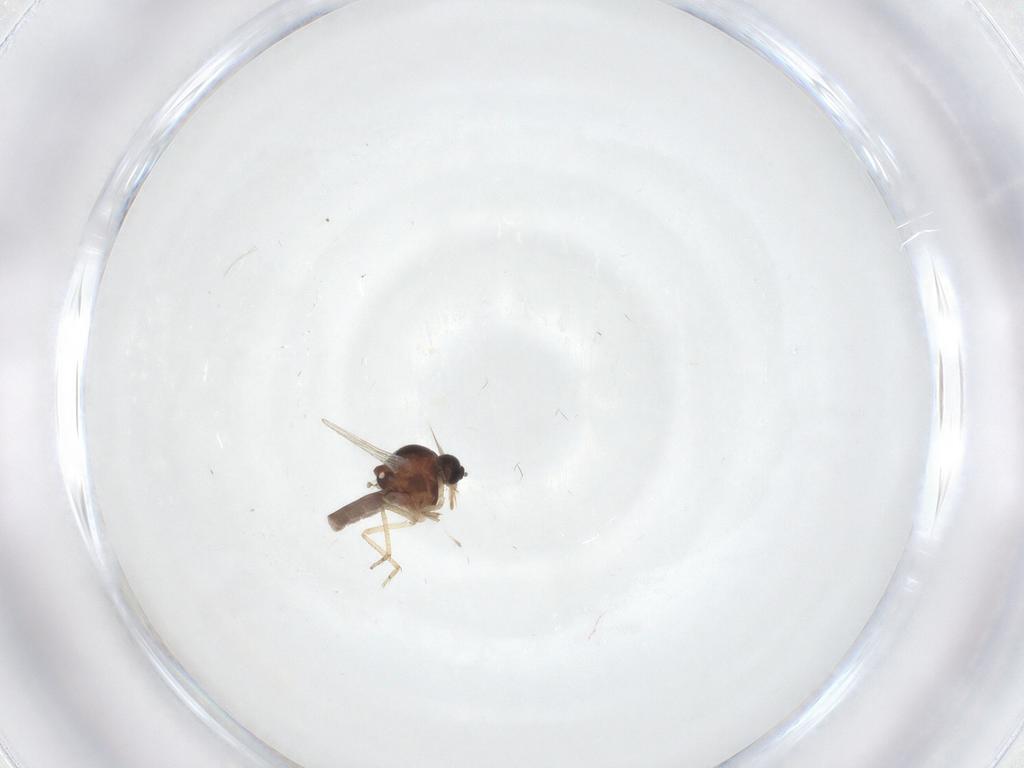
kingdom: Animalia
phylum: Arthropoda
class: Insecta
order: Diptera
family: Ceratopogonidae
